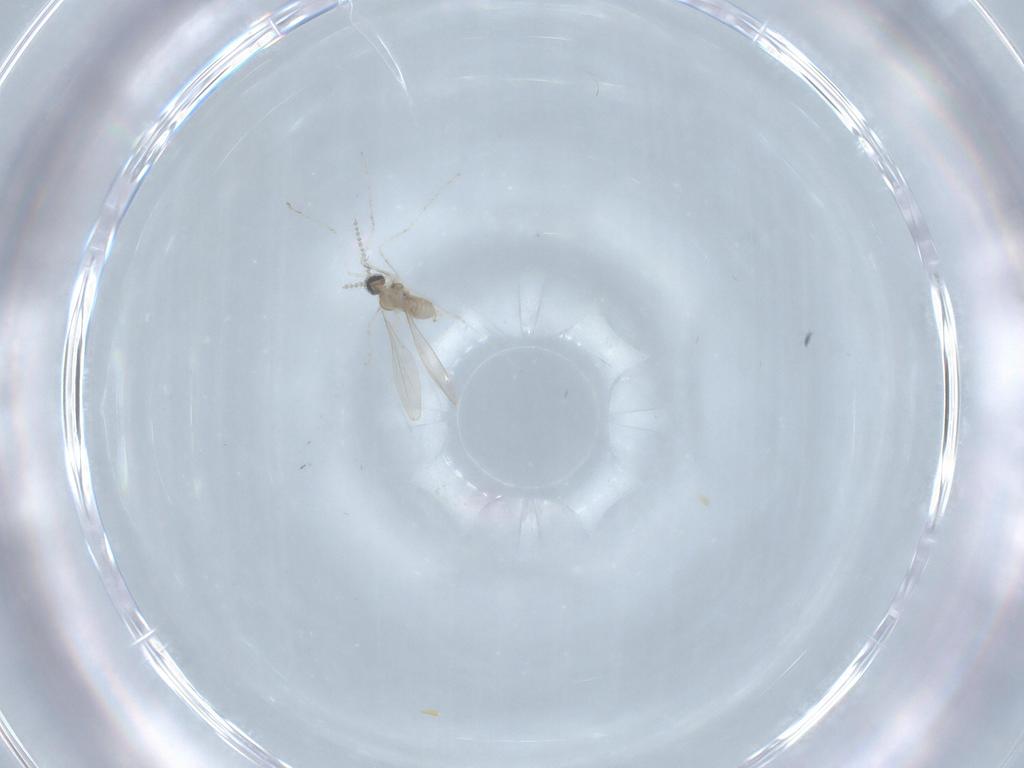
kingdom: Animalia
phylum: Arthropoda
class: Insecta
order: Diptera
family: Cecidomyiidae
